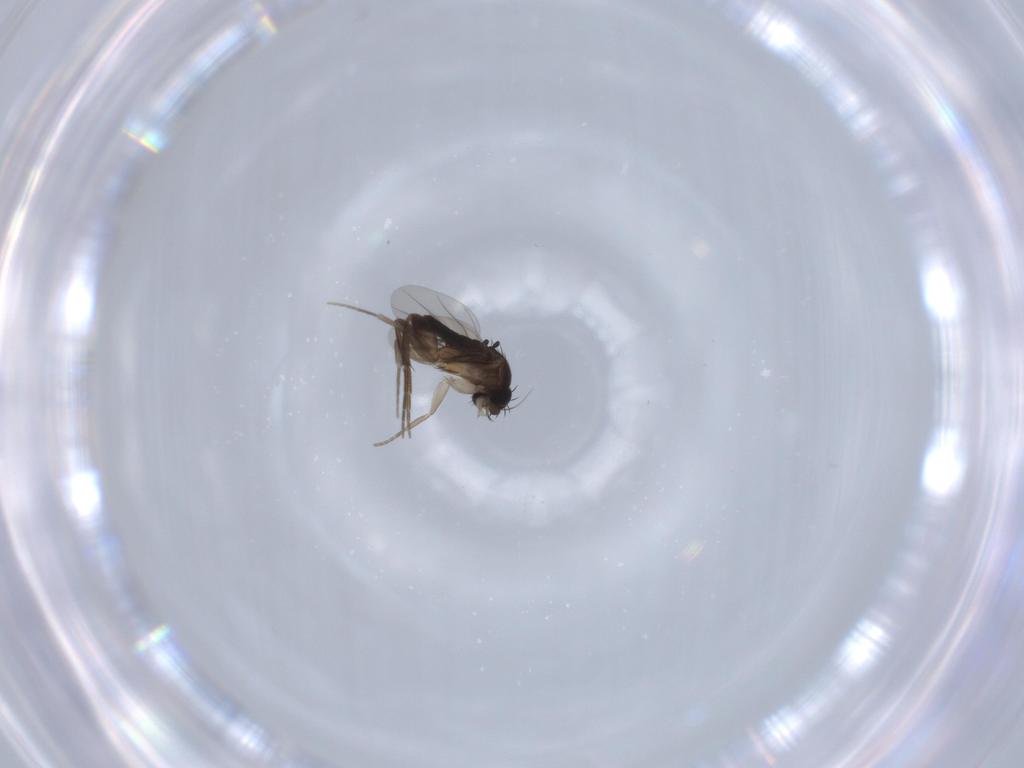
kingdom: Animalia
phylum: Arthropoda
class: Insecta
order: Diptera
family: Phoridae
